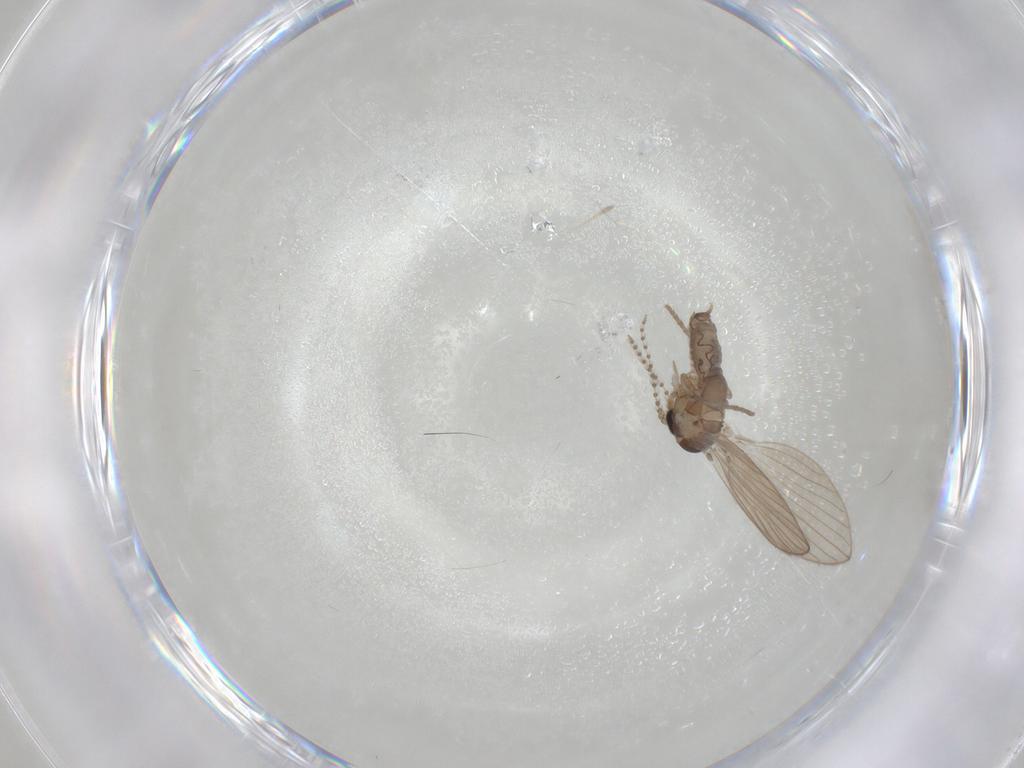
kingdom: Animalia
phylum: Arthropoda
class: Insecta
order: Diptera
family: Psychodidae
